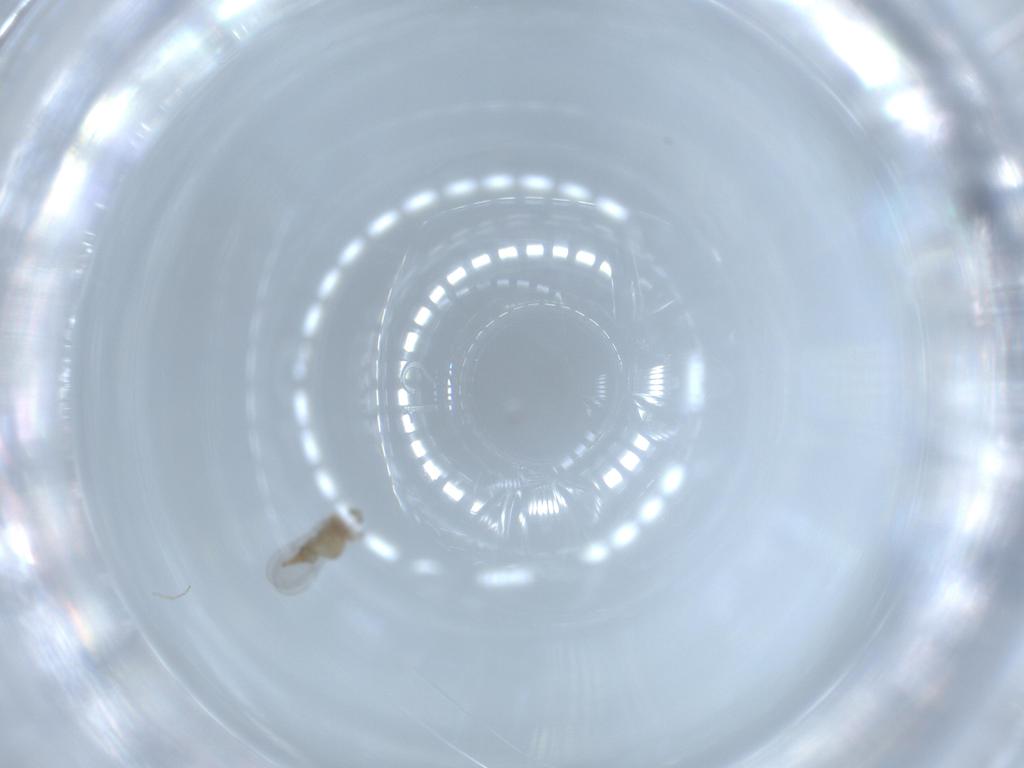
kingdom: Animalia
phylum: Arthropoda
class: Insecta
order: Diptera
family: Cecidomyiidae
